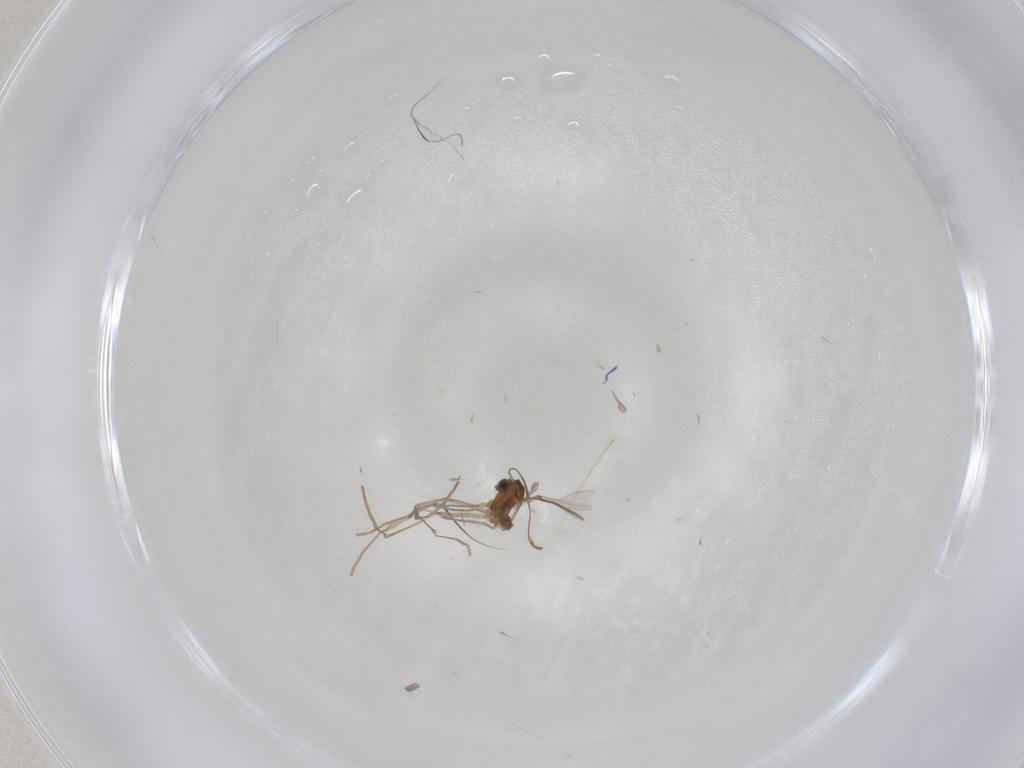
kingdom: Animalia
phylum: Arthropoda
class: Insecta
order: Diptera
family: Cecidomyiidae
